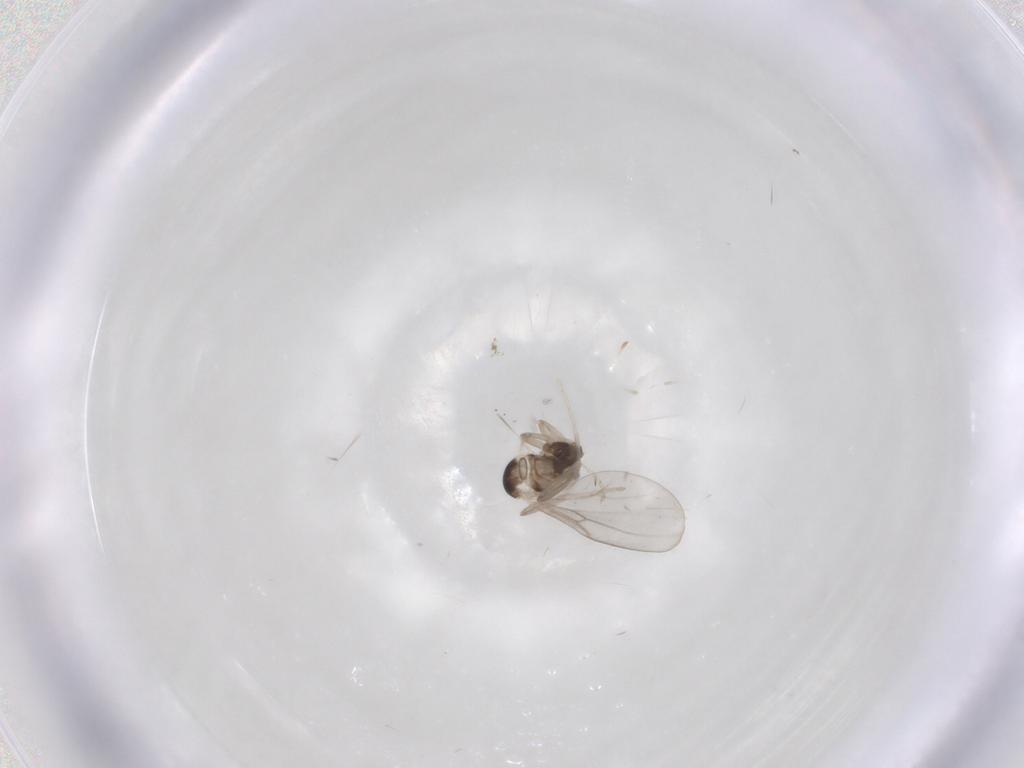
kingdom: Animalia
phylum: Arthropoda
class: Insecta
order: Diptera
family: Cecidomyiidae
